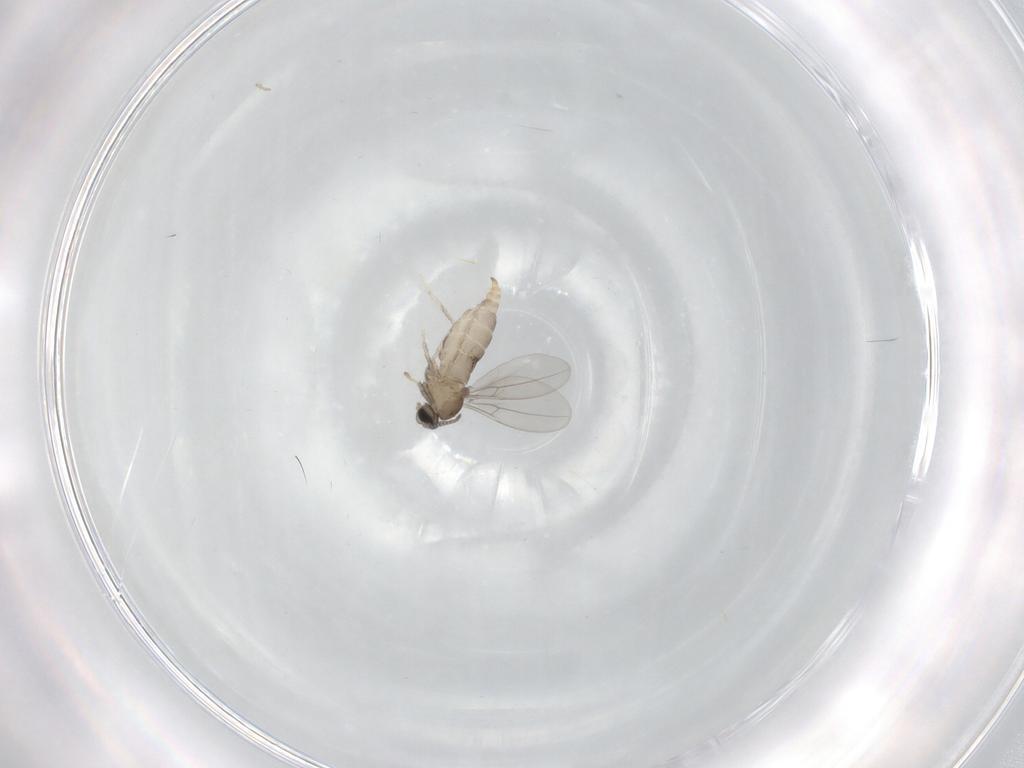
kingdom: Animalia
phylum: Arthropoda
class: Insecta
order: Diptera
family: Cecidomyiidae
